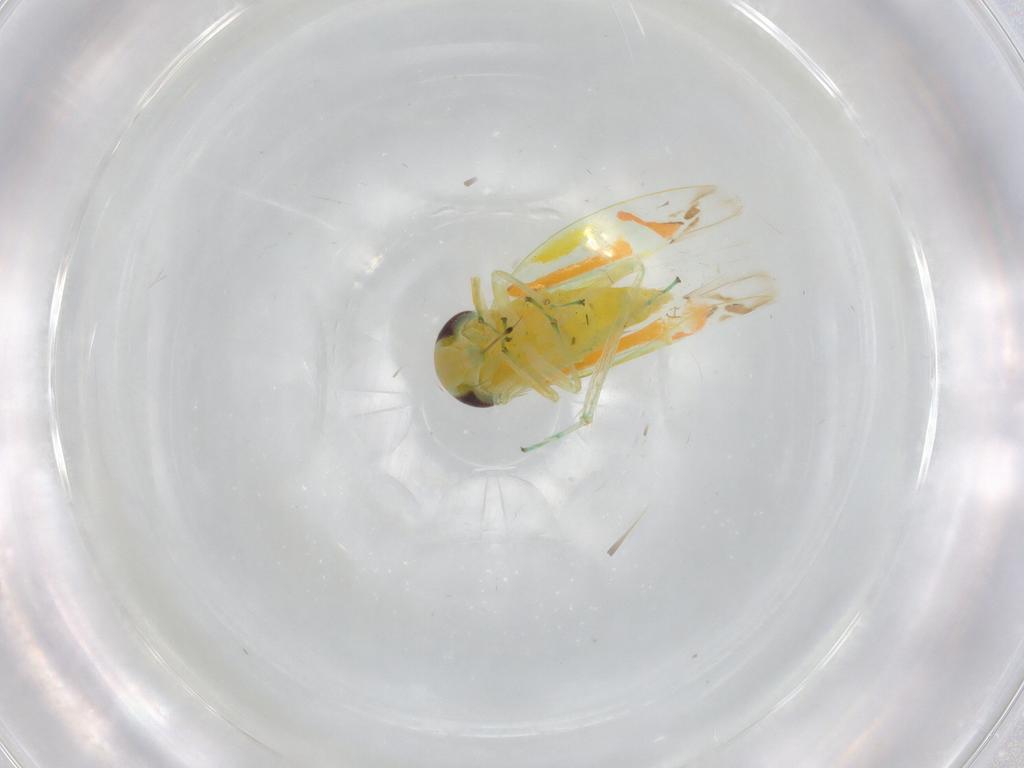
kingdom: Animalia
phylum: Arthropoda
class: Insecta
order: Hemiptera
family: Cicadellidae
